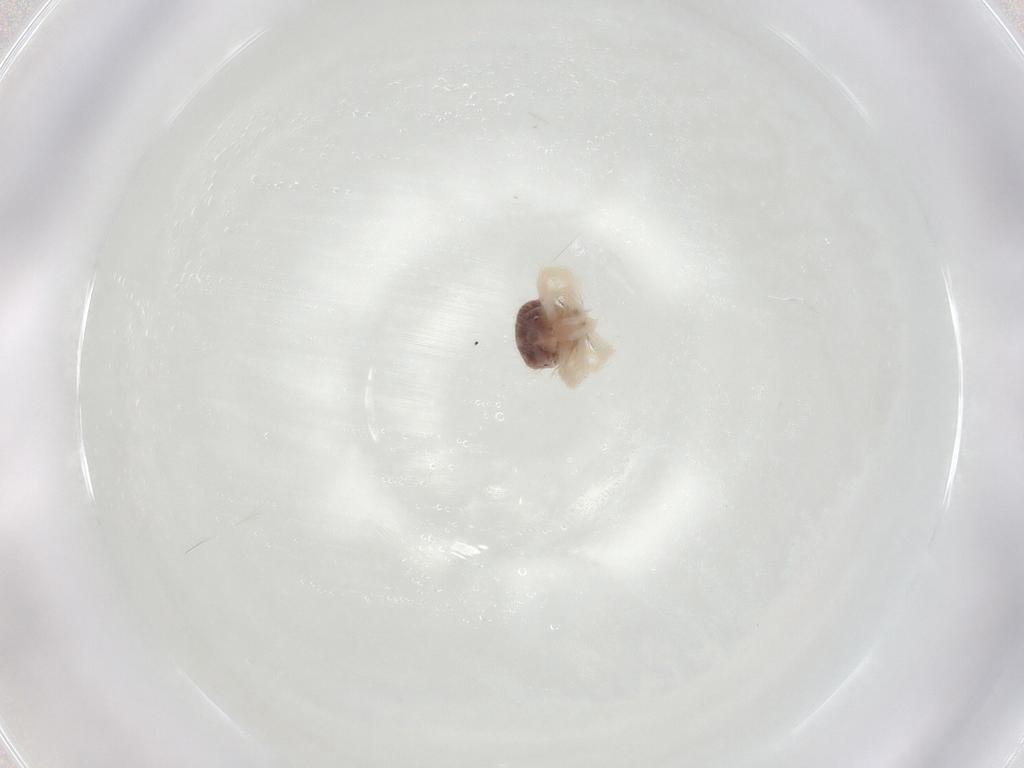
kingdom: Animalia
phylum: Arthropoda
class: Arachnida
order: Trombidiformes
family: Anystidae
